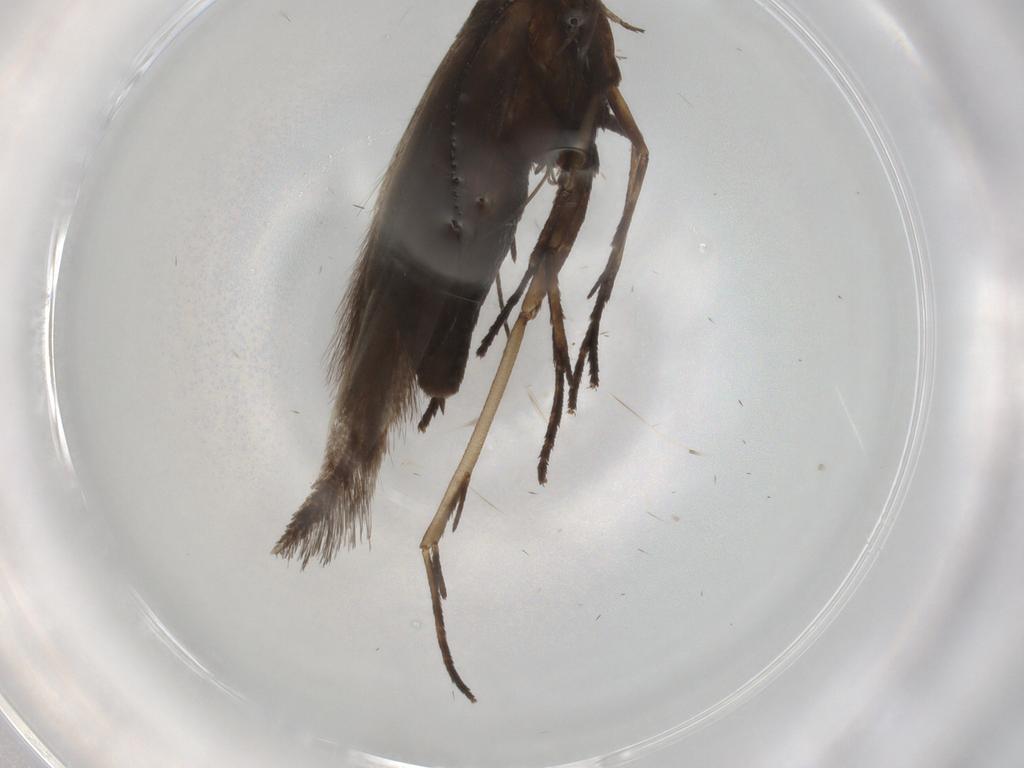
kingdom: Animalia
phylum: Arthropoda
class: Insecta
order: Lepidoptera
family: Coleophoridae
